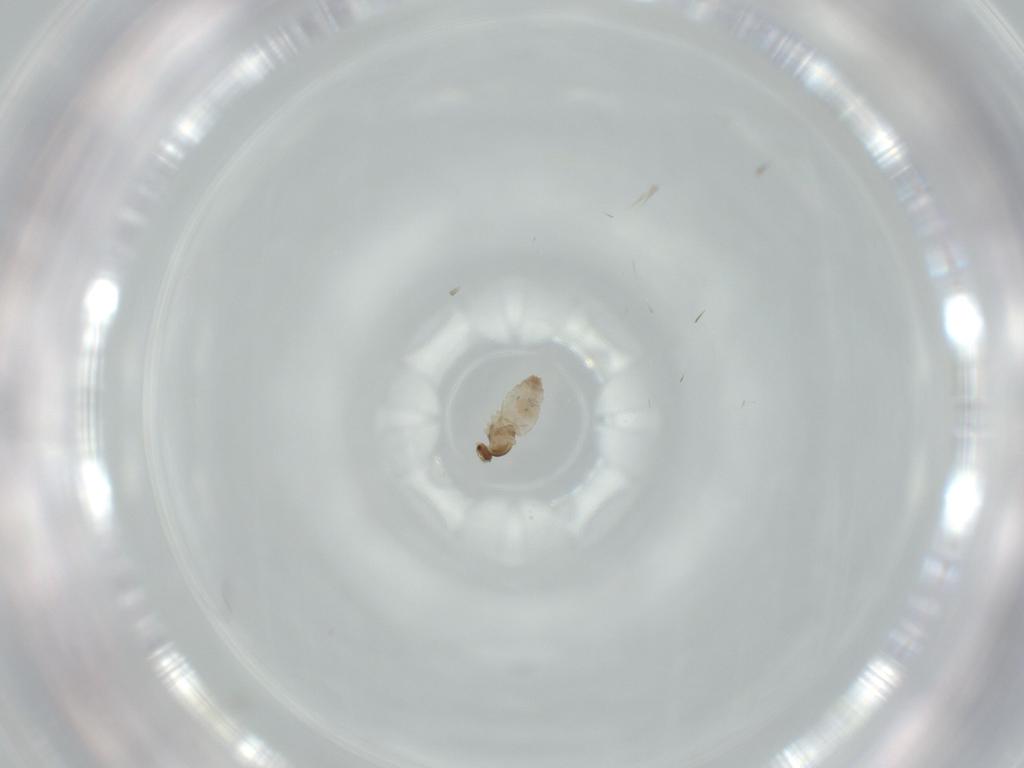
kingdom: Animalia
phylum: Arthropoda
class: Insecta
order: Diptera
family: Cecidomyiidae
